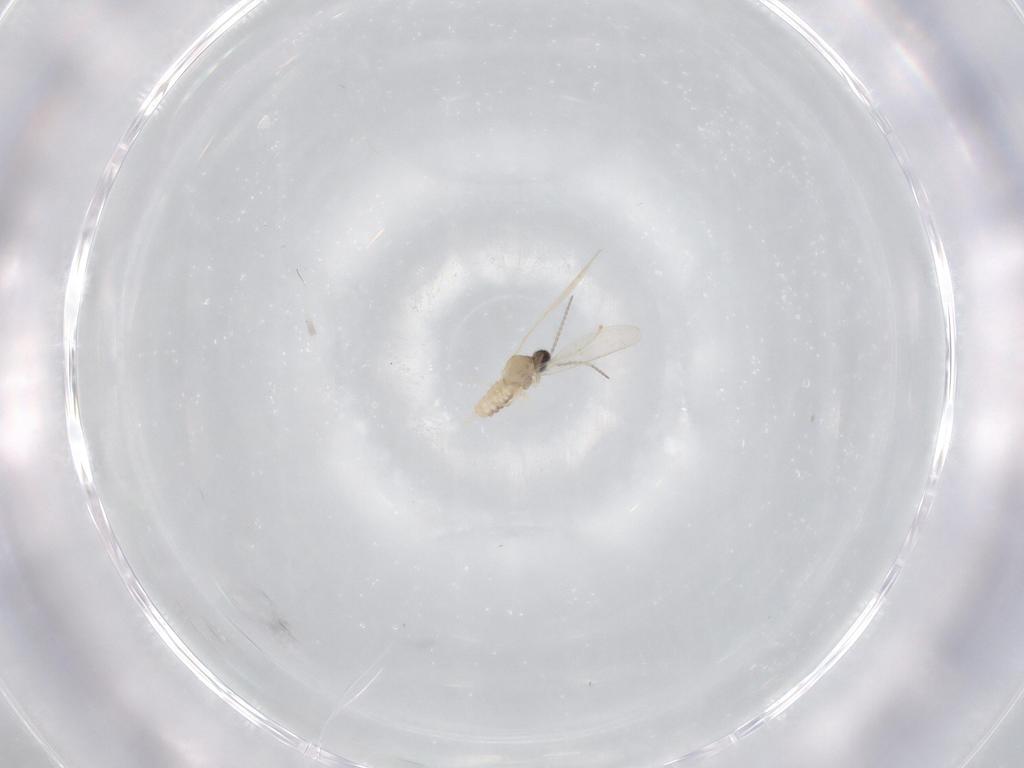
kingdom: Animalia
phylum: Arthropoda
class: Insecta
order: Diptera
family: Cecidomyiidae
